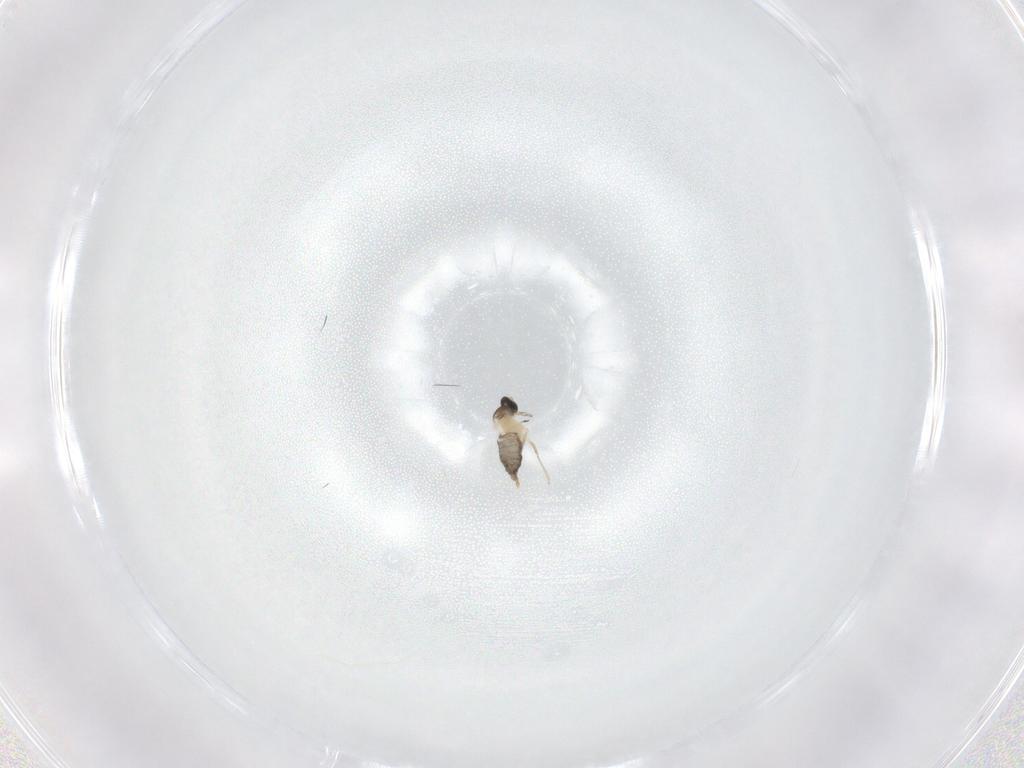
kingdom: Animalia
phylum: Arthropoda
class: Insecta
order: Diptera
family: Cecidomyiidae
